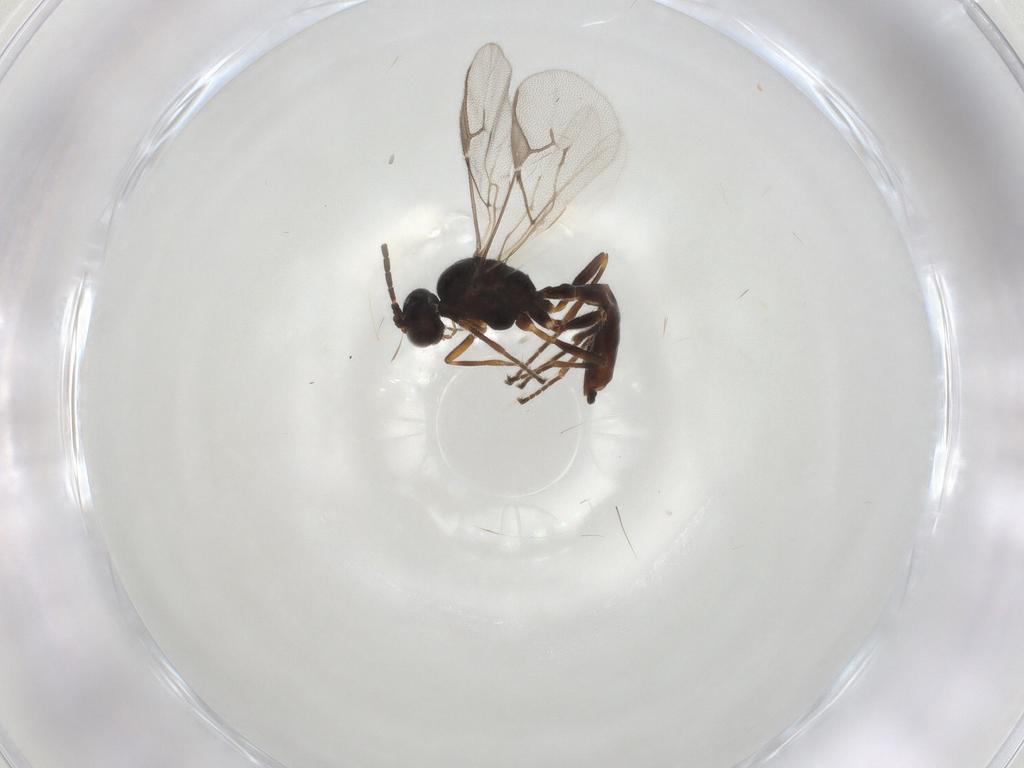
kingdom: Animalia
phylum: Arthropoda
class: Insecta
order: Hymenoptera
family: Braconidae
